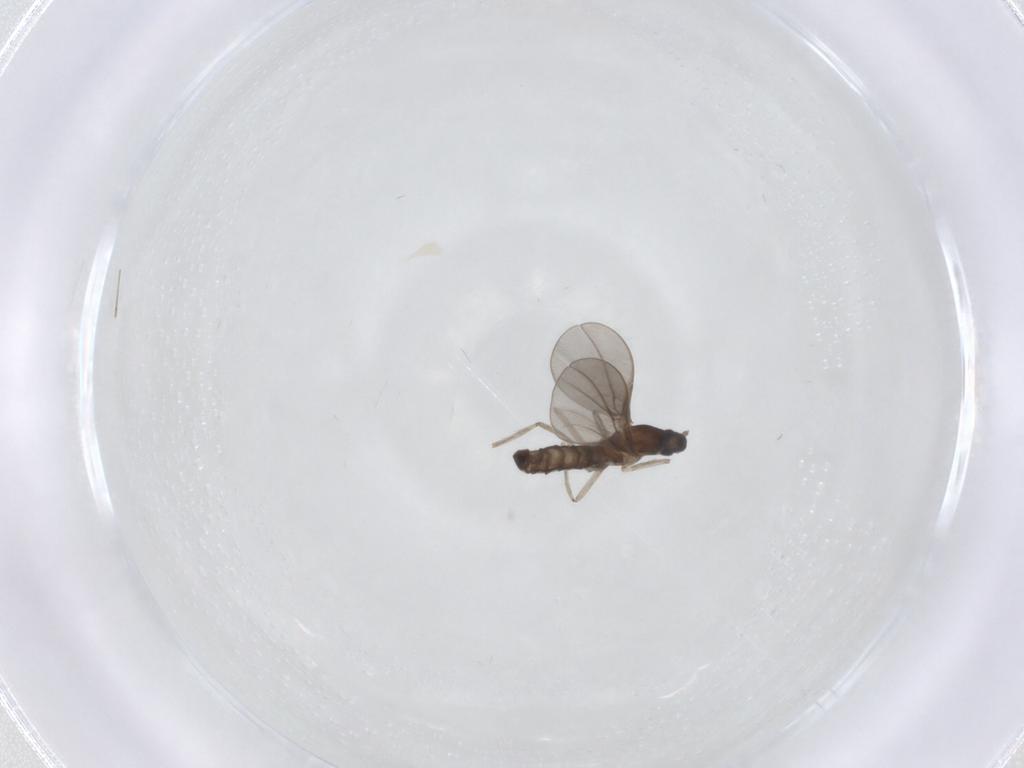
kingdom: Animalia
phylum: Arthropoda
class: Insecta
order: Diptera
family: Cecidomyiidae
